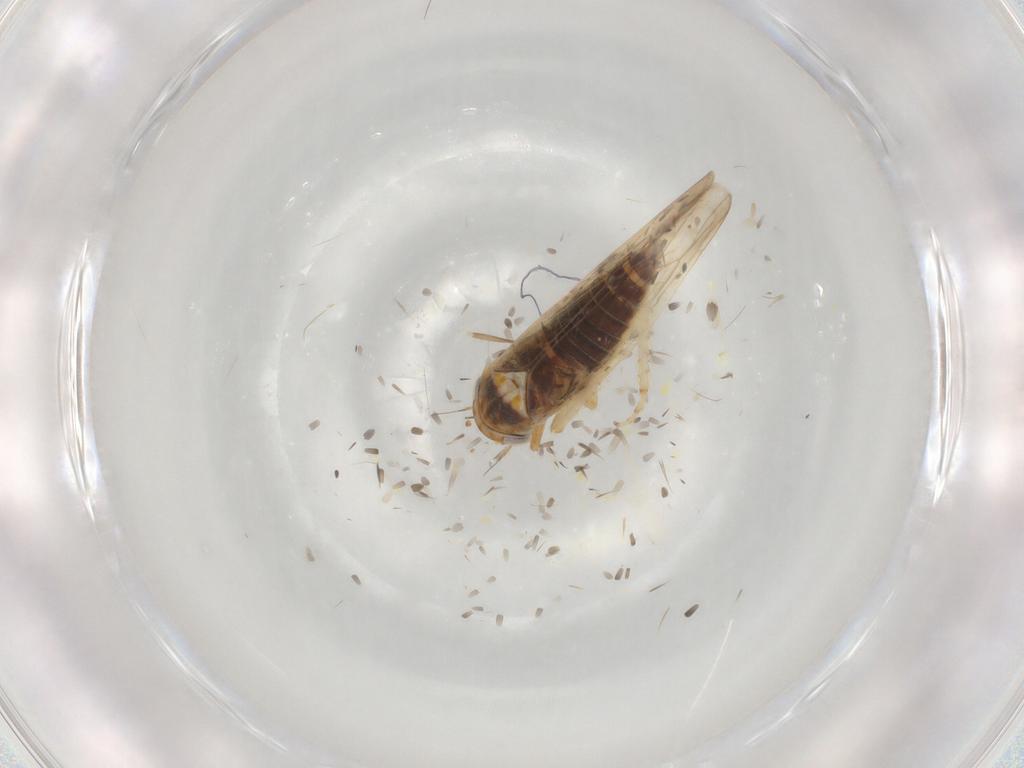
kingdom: Animalia
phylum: Arthropoda
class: Insecta
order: Hemiptera
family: Cicadellidae
